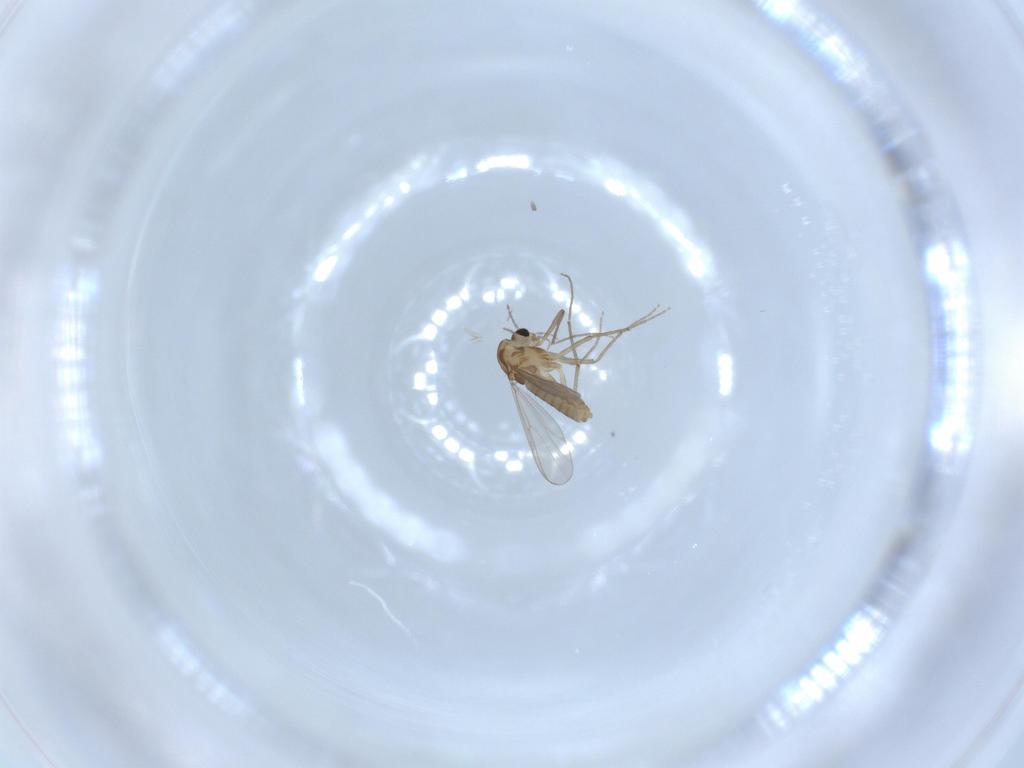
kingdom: Animalia
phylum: Arthropoda
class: Insecta
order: Diptera
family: Chironomidae
